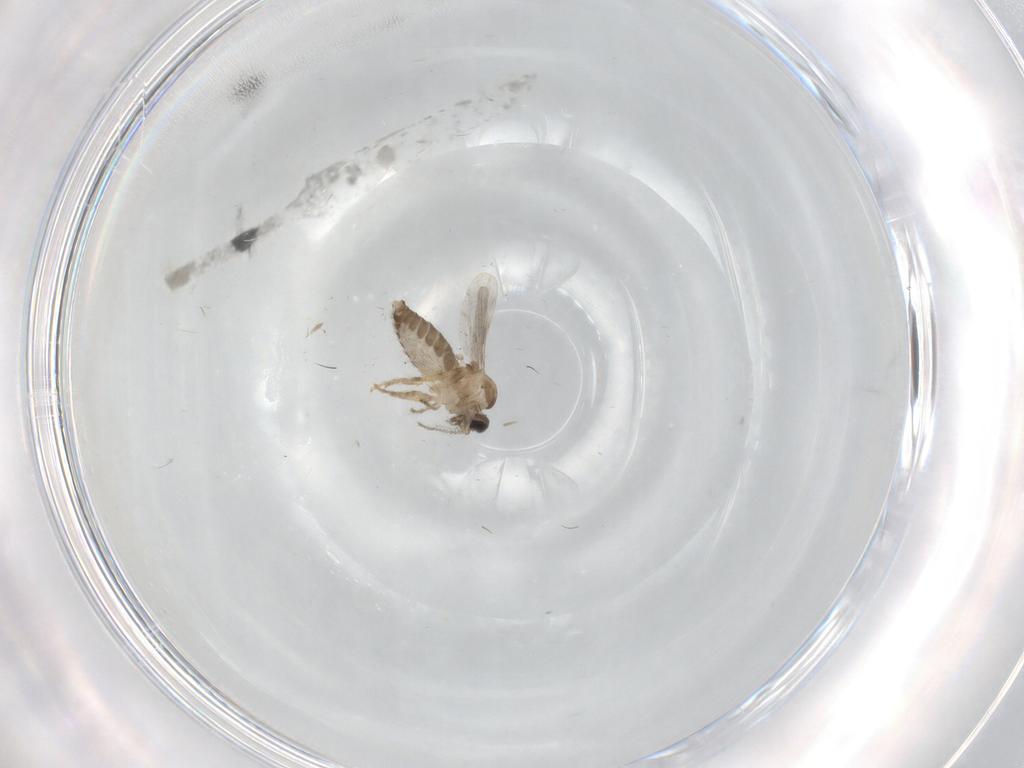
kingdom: Animalia
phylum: Arthropoda
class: Insecta
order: Diptera
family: Ceratopogonidae
